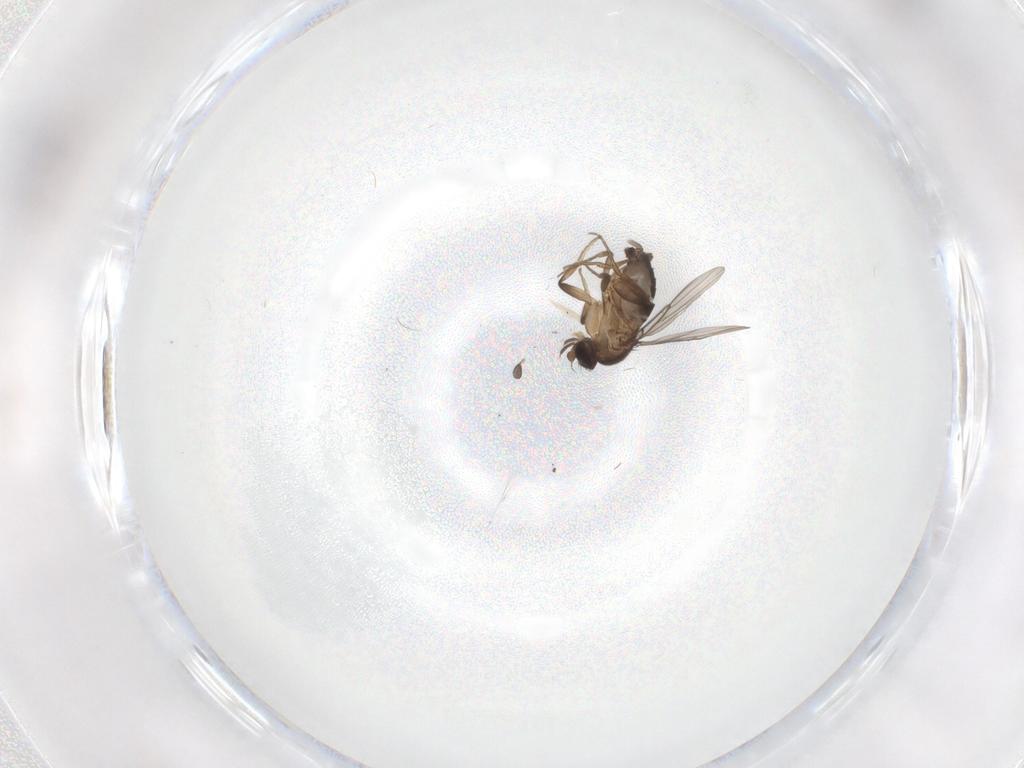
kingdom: Animalia
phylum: Arthropoda
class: Insecta
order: Diptera
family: Phoridae
